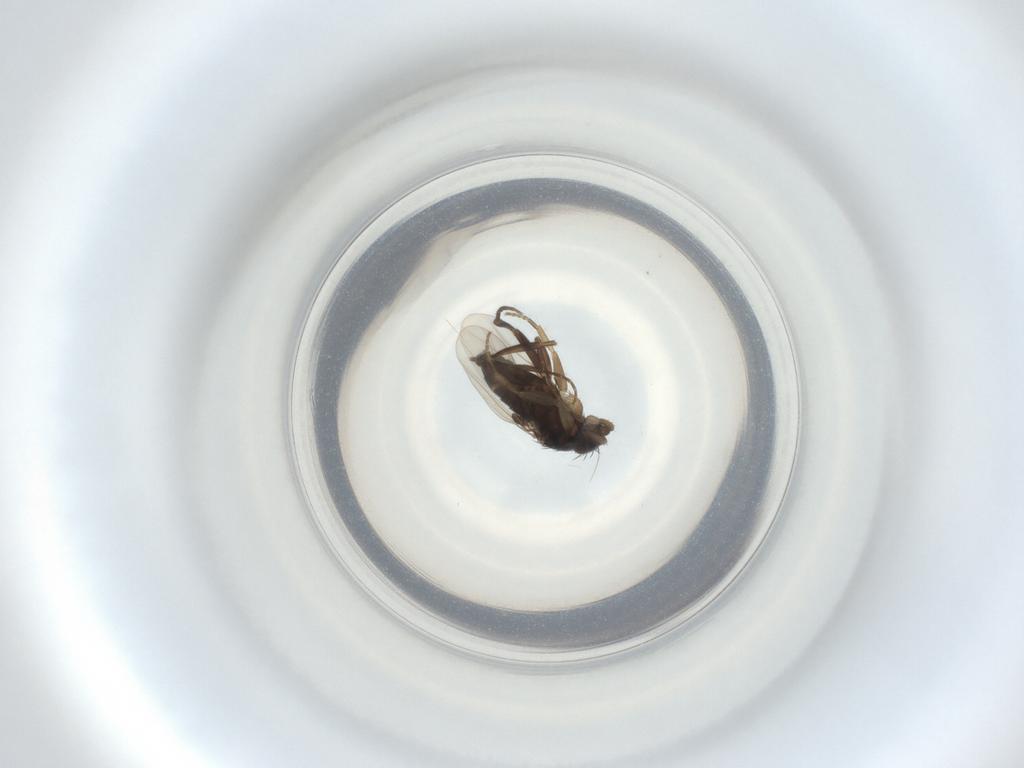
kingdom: Animalia
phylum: Arthropoda
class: Insecta
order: Diptera
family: Phoridae
